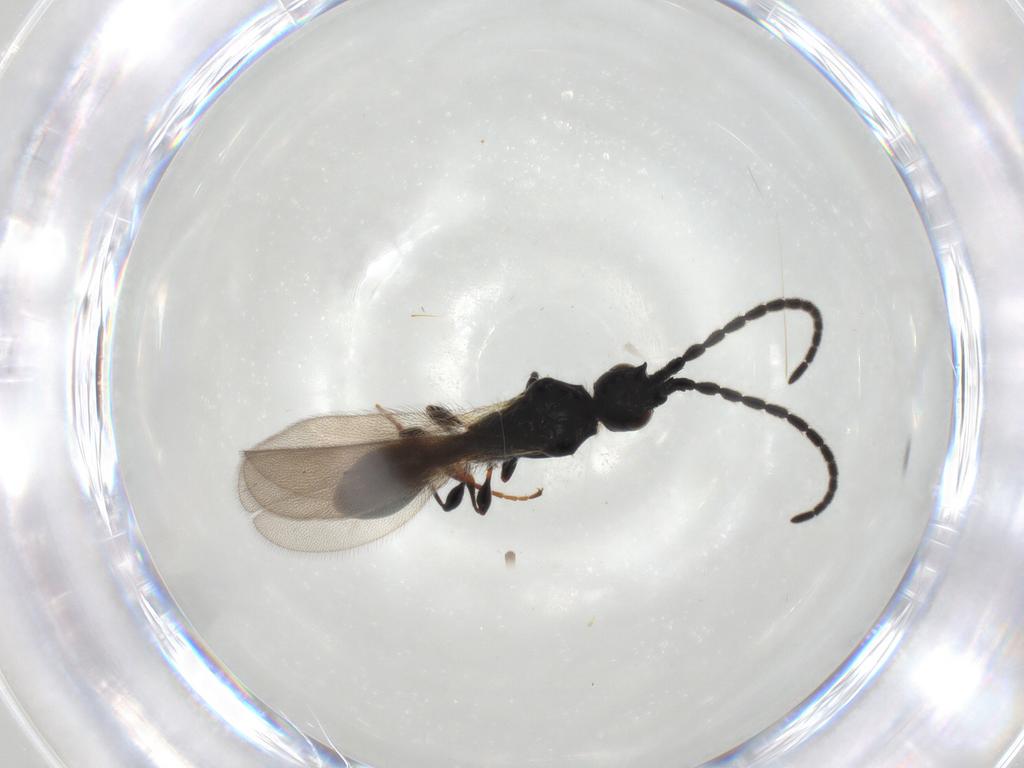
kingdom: Animalia
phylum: Arthropoda
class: Insecta
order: Hymenoptera
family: Diapriidae
